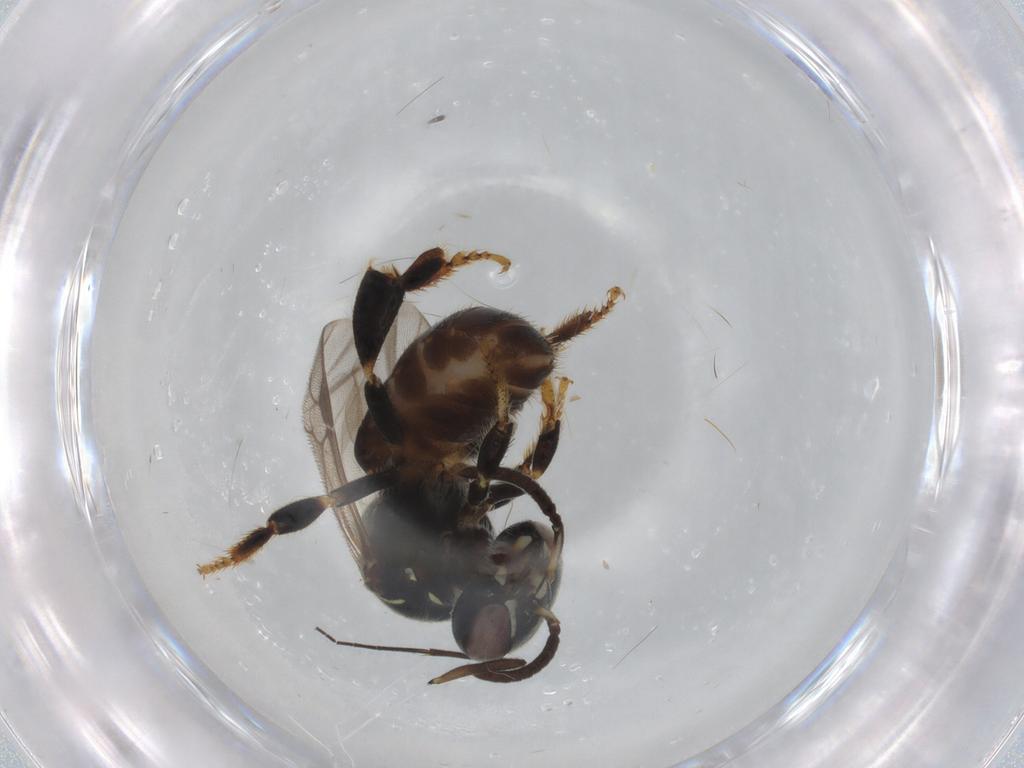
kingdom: Animalia
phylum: Arthropoda
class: Insecta
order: Hymenoptera
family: Apidae
